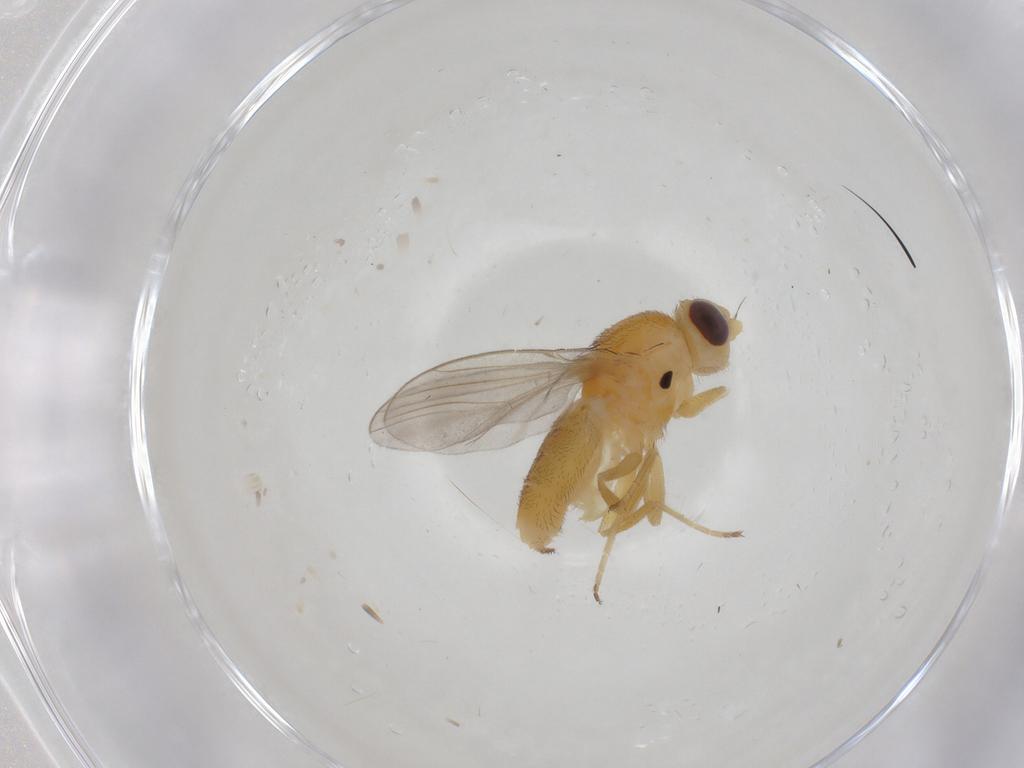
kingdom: Animalia
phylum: Arthropoda
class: Insecta
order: Diptera
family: Chloropidae
